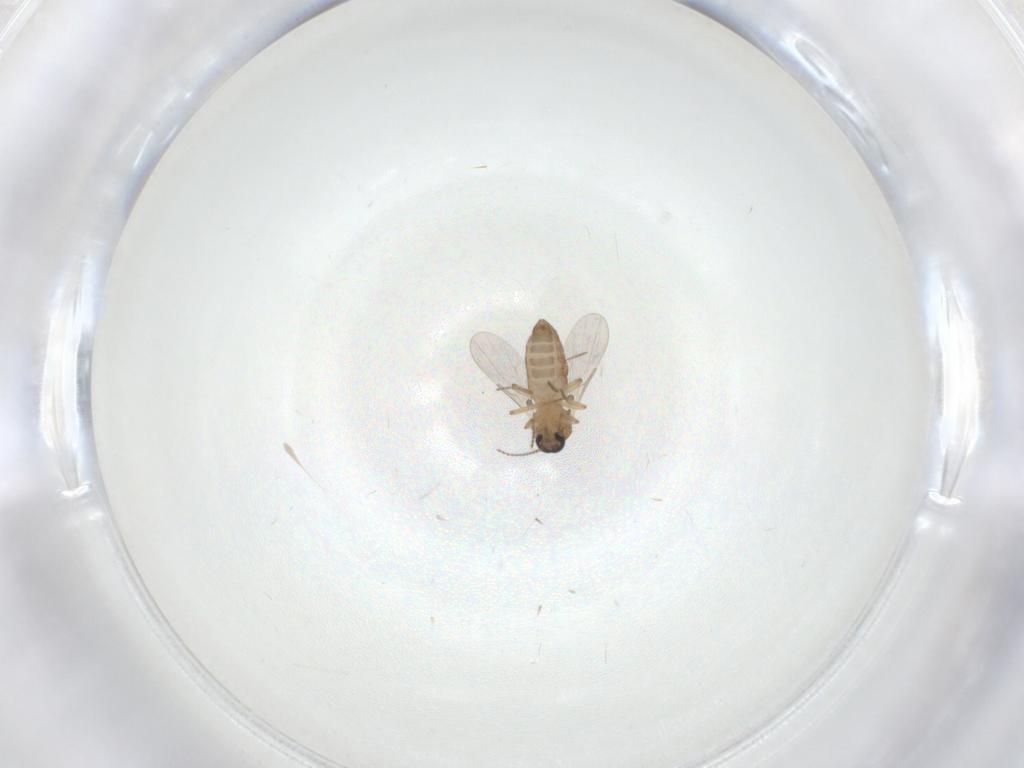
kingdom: Animalia
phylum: Arthropoda
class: Insecta
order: Diptera
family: Ceratopogonidae
